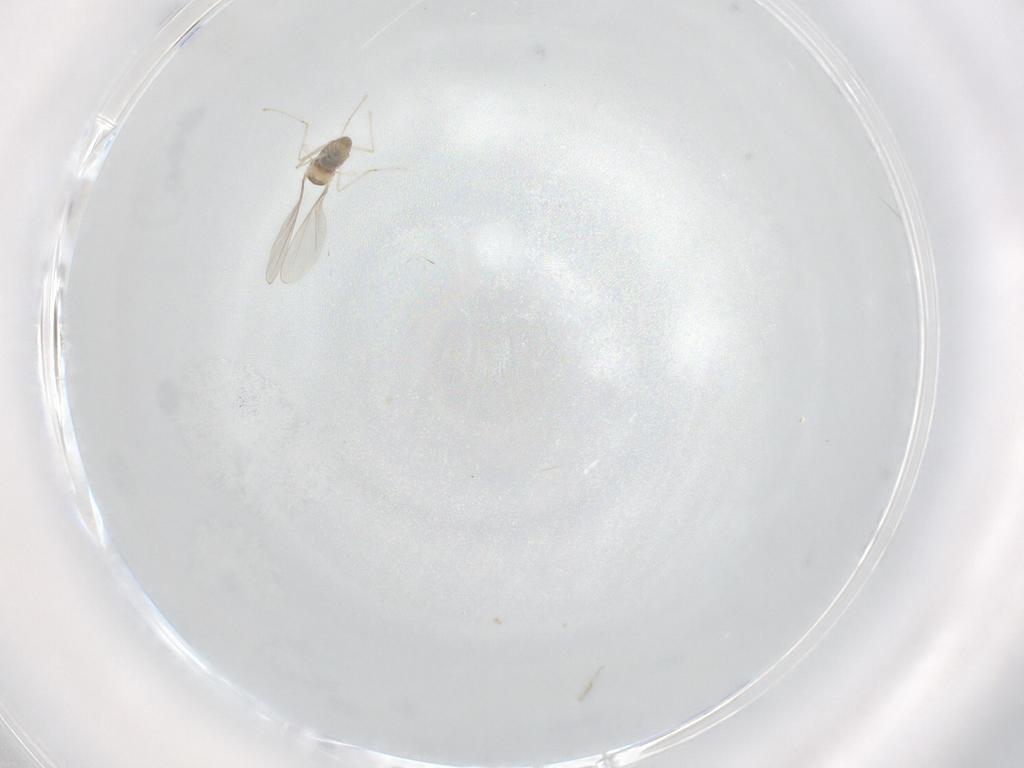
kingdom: Animalia
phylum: Arthropoda
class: Insecta
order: Diptera
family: Cecidomyiidae
